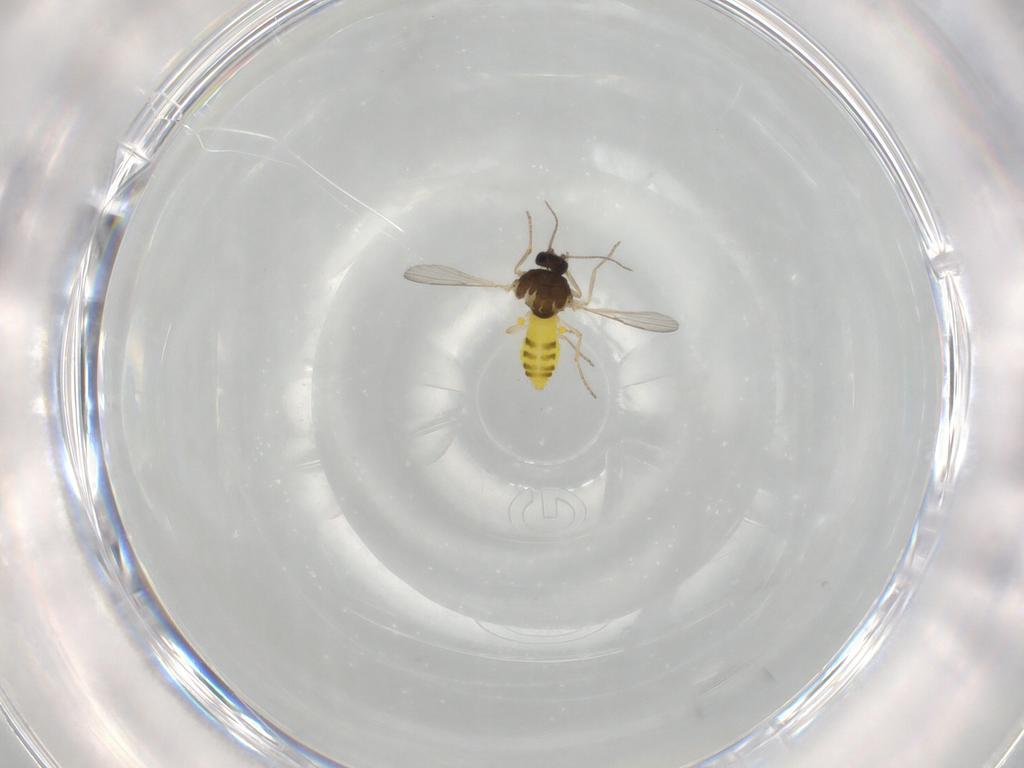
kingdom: Animalia
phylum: Arthropoda
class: Insecta
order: Diptera
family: Ceratopogonidae
